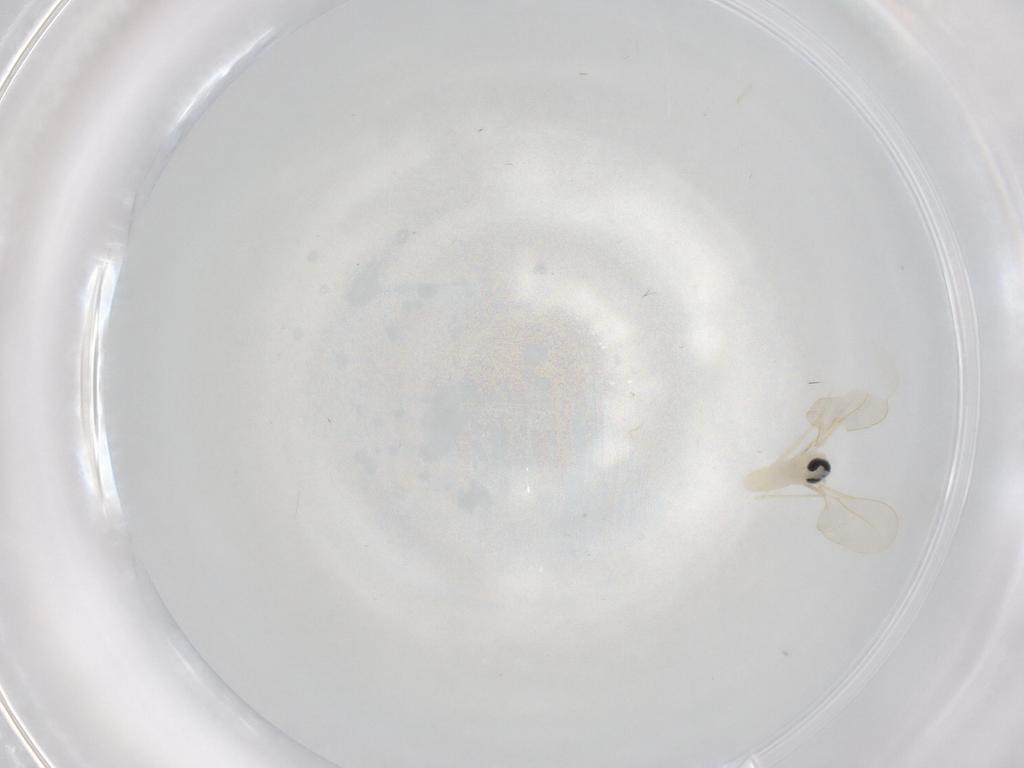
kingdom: Animalia
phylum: Arthropoda
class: Insecta
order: Diptera
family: Cecidomyiidae
